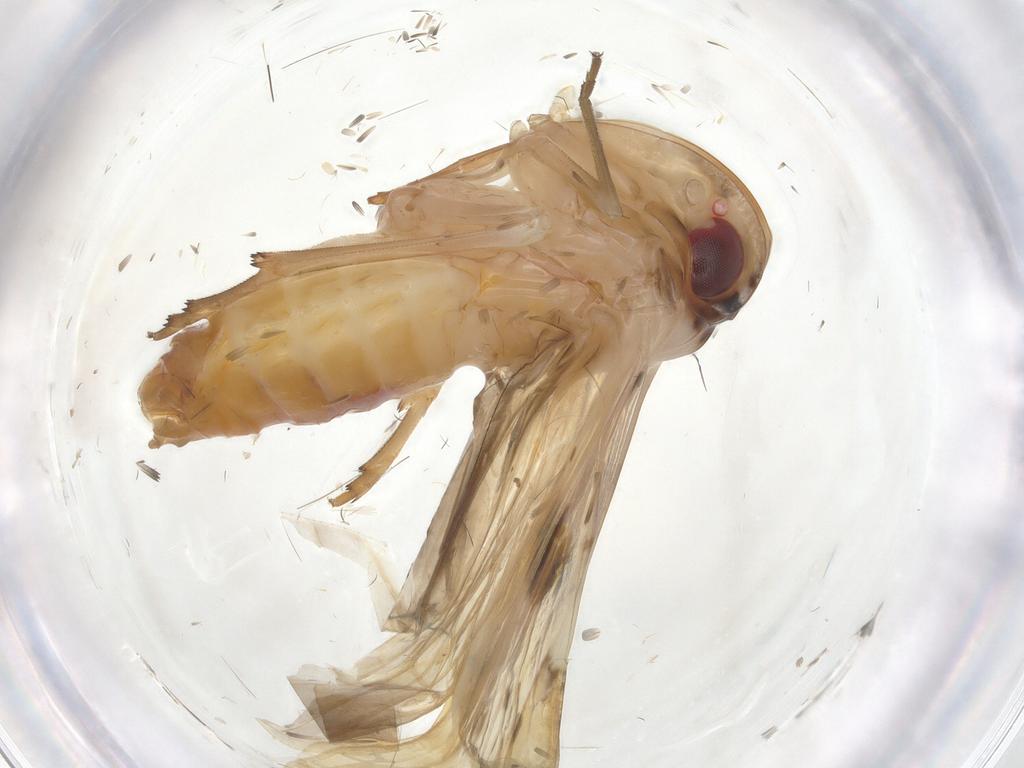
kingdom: Animalia
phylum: Arthropoda
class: Insecta
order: Hemiptera
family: Achilidae
